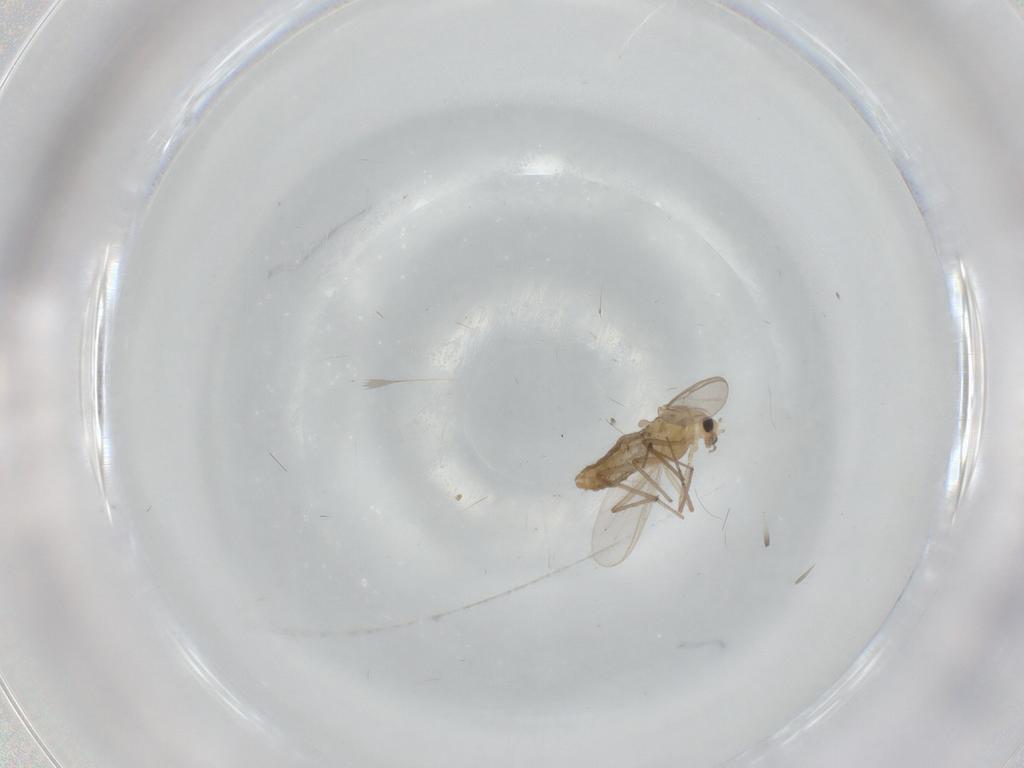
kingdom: Animalia
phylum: Arthropoda
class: Insecta
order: Diptera
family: Chironomidae
